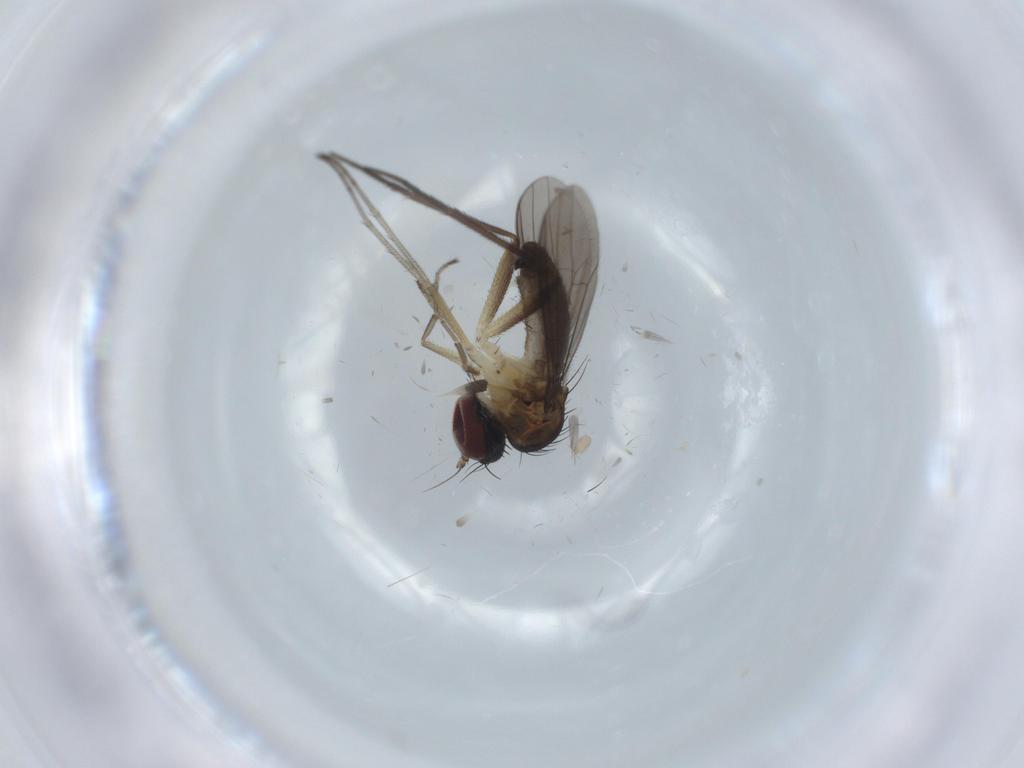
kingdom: Animalia
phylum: Arthropoda
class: Insecta
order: Diptera
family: Dolichopodidae
